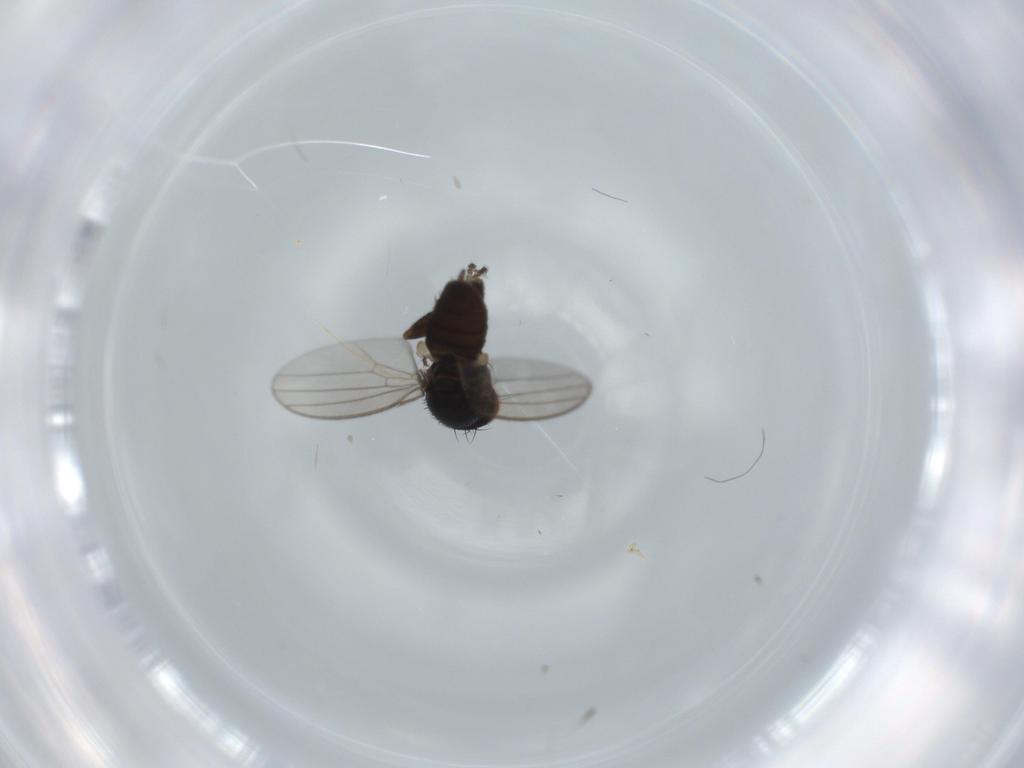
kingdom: Animalia
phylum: Arthropoda
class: Insecta
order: Diptera
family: Milichiidae
